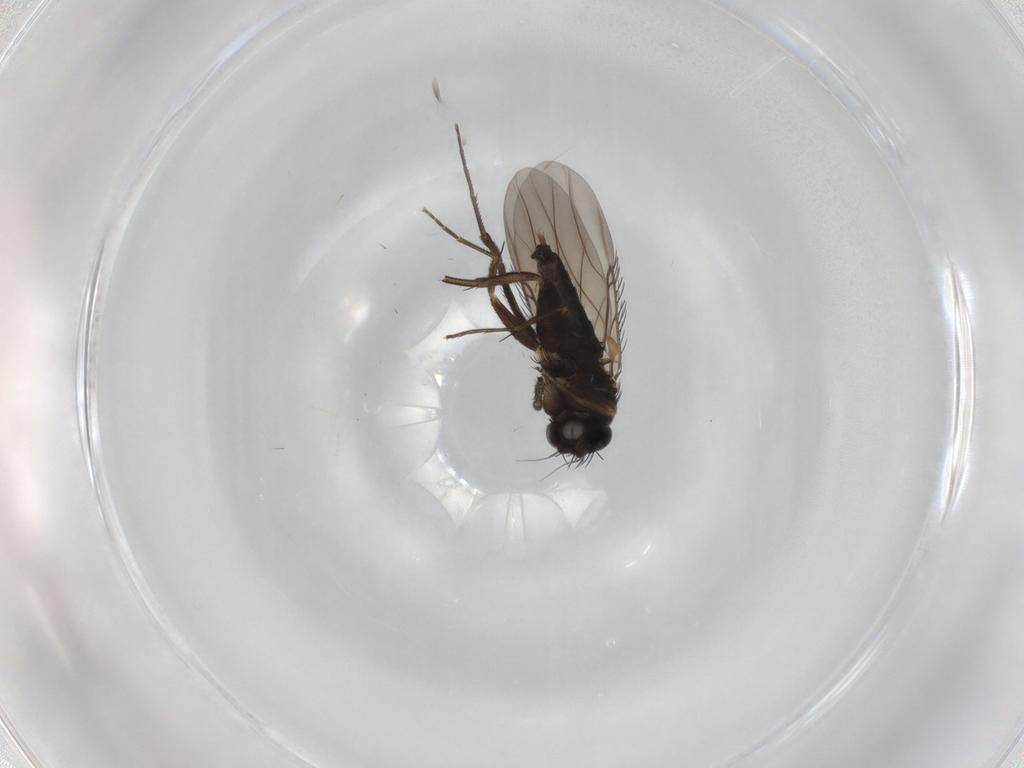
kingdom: Animalia
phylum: Arthropoda
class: Insecta
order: Diptera
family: Phoridae
